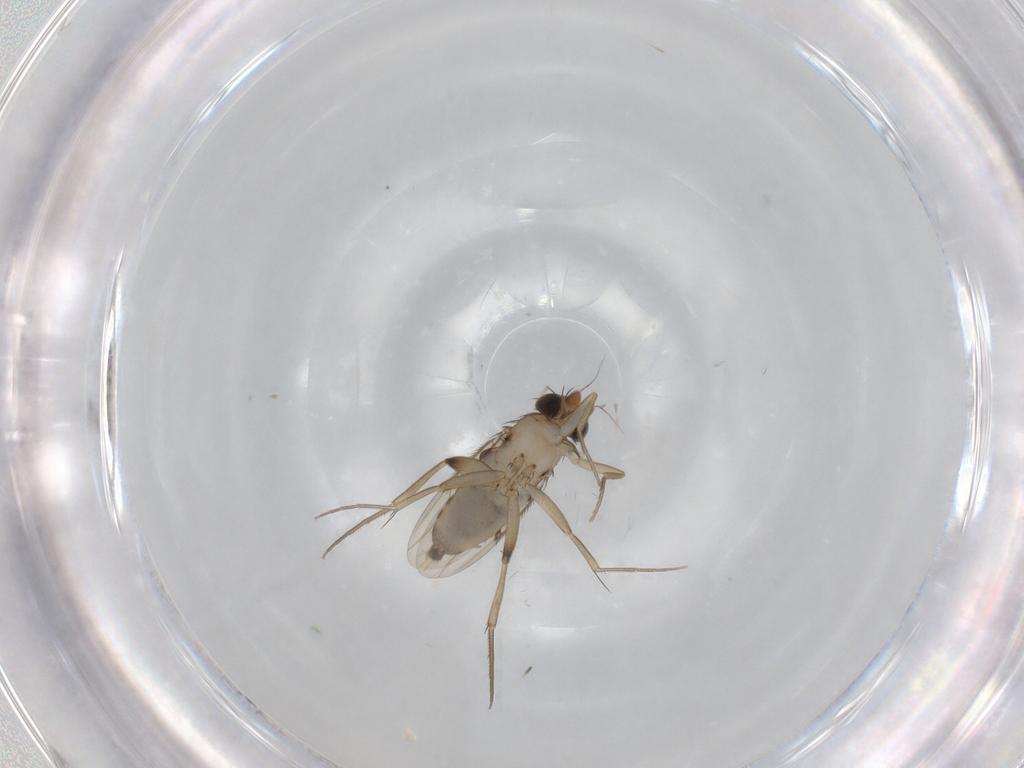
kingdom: Animalia
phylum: Arthropoda
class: Insecta
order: Diptera
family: Phoridae
